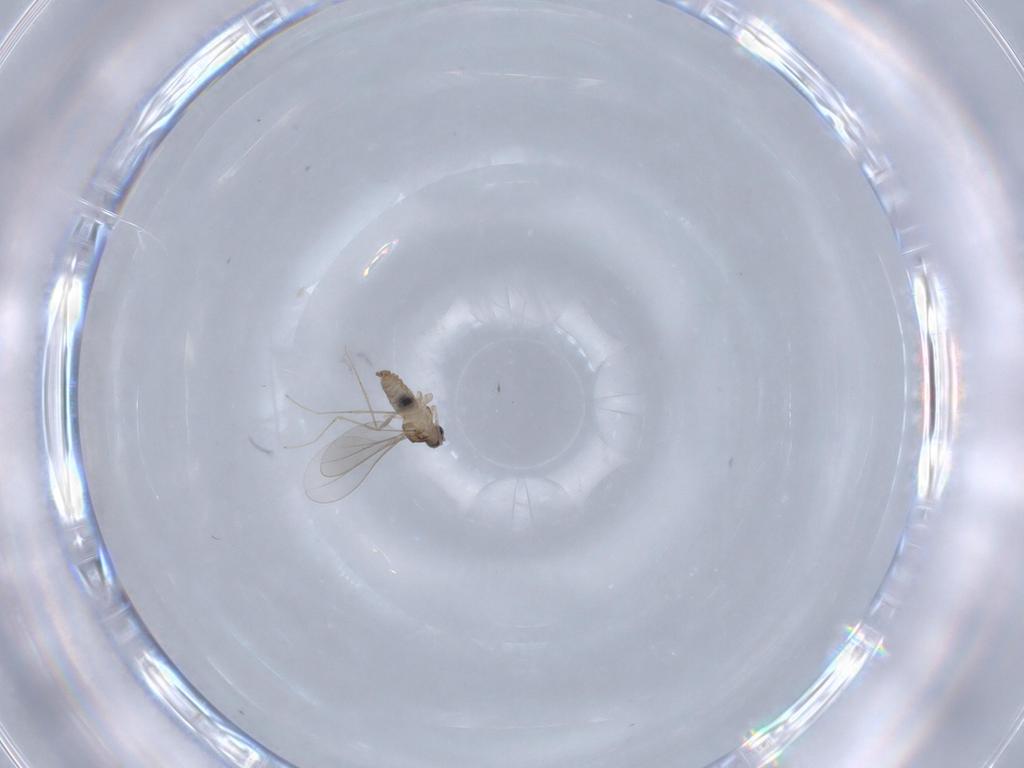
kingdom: Animalia
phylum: Arthropoda
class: Insecta
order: Diptera
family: Cecidomyiidae
